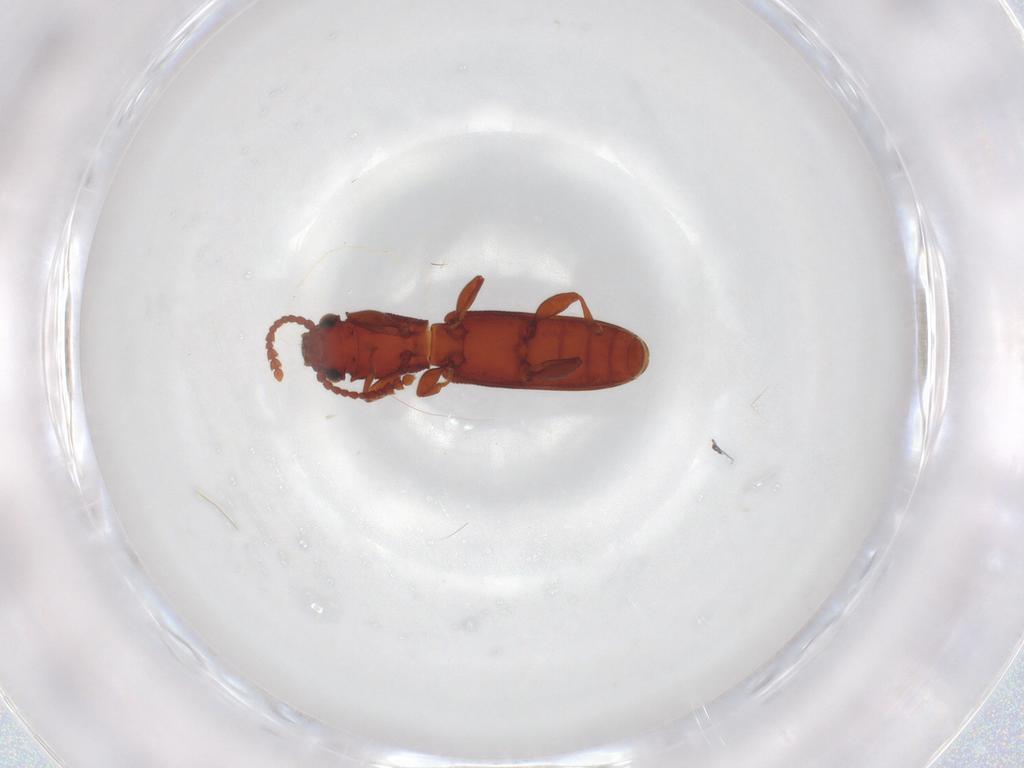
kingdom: Animalia
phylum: Arthropoda
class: Insecta
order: Coleoptera
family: Silvanidae
